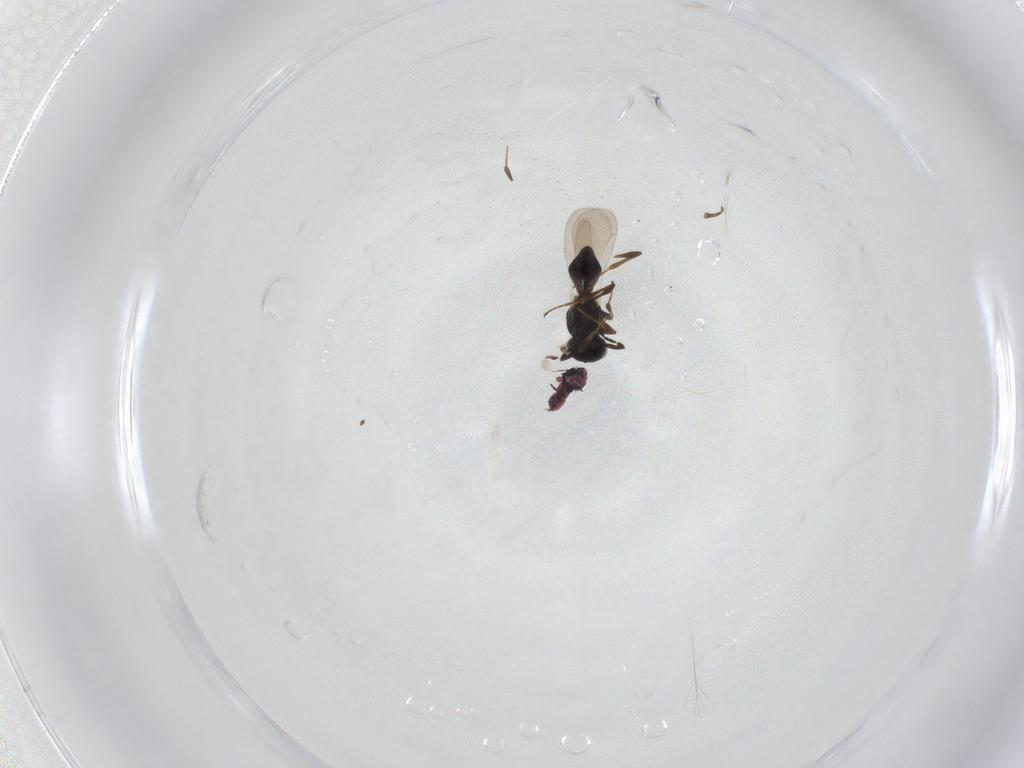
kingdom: Animalia
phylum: Arthropoda
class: Insecta
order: Hymenoptera
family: Platygastridae
